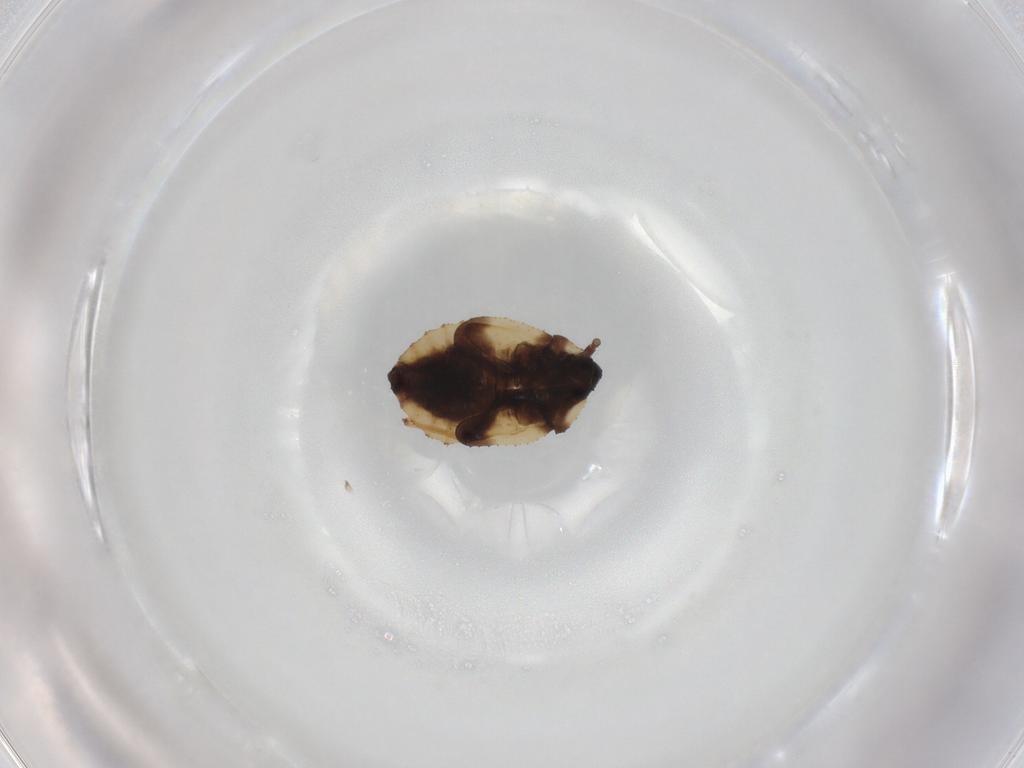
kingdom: Animalia
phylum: Arthropoda
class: Insecta
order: Hemiptera
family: Tingidae
